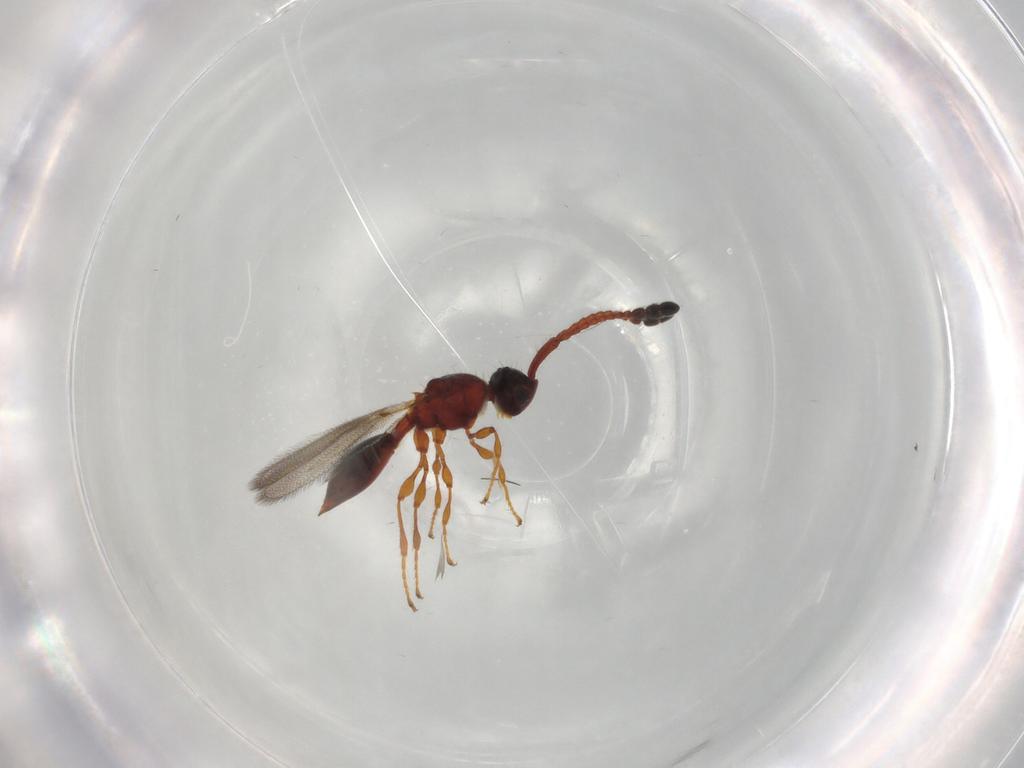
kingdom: Animalia
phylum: Arthropoda
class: Insecta
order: Hymenoptera
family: Diapriidae
